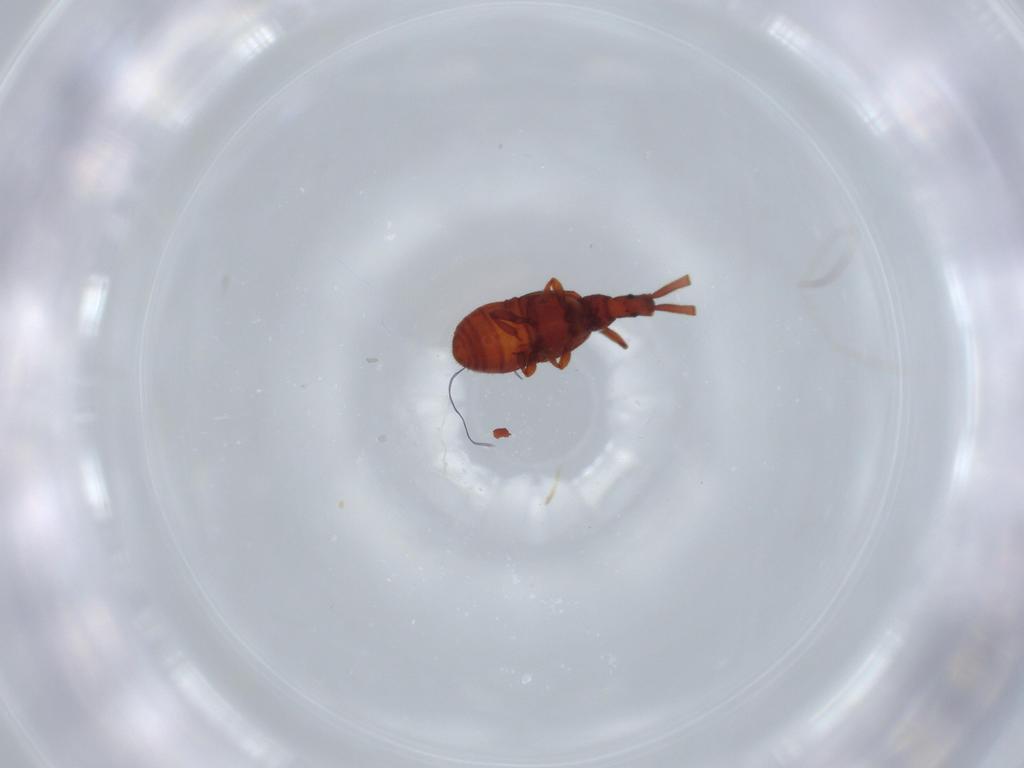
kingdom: Animalia
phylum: Arthropoda
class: Insecta
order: Coleoptera
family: Staphylinidae
